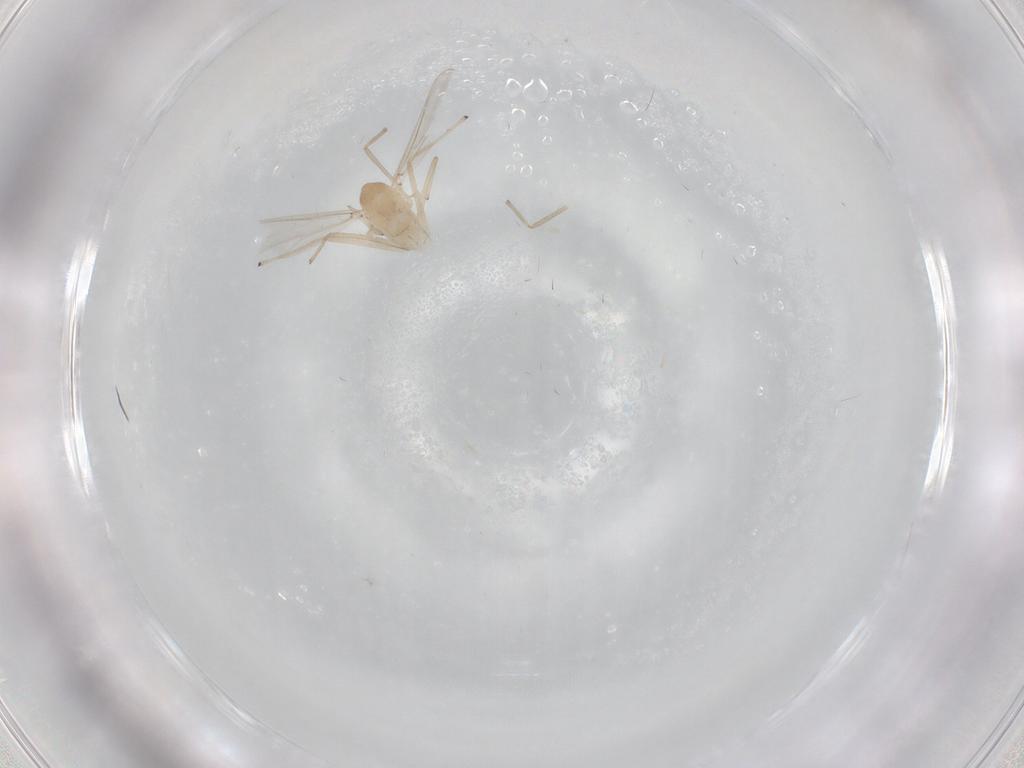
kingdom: Animalia
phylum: Arthropoda
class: Insecta
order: Diptera
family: Chironomidae
